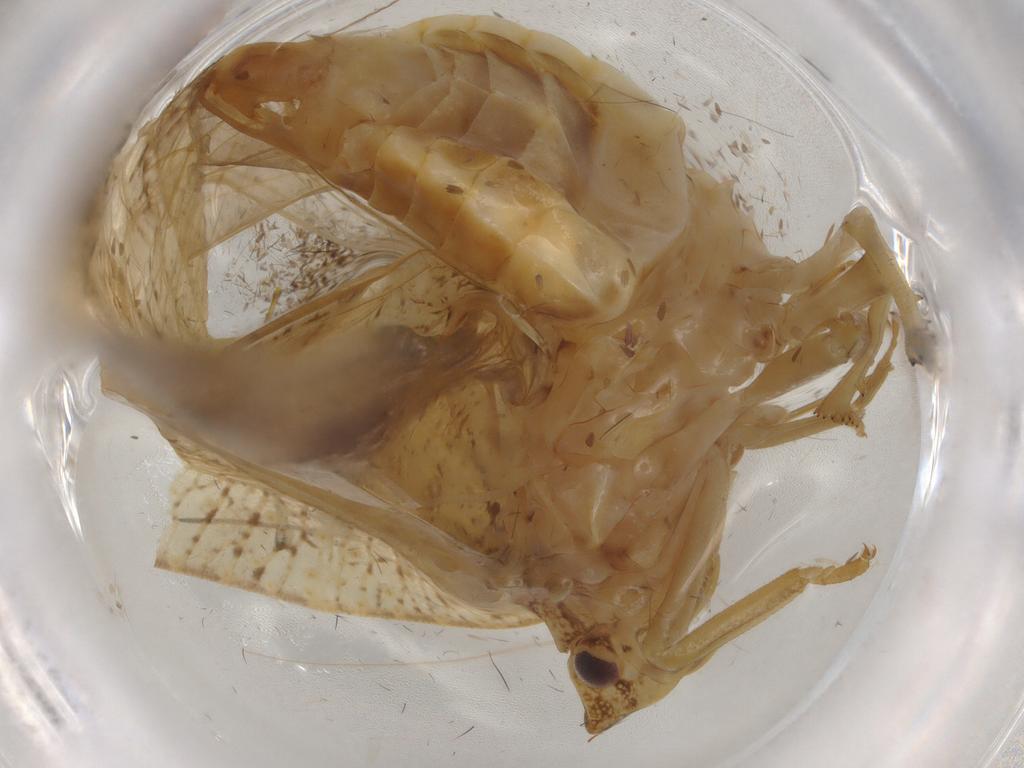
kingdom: Animalia
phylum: Arthropoda
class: Insecta
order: Hemiptera
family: Flatidae
